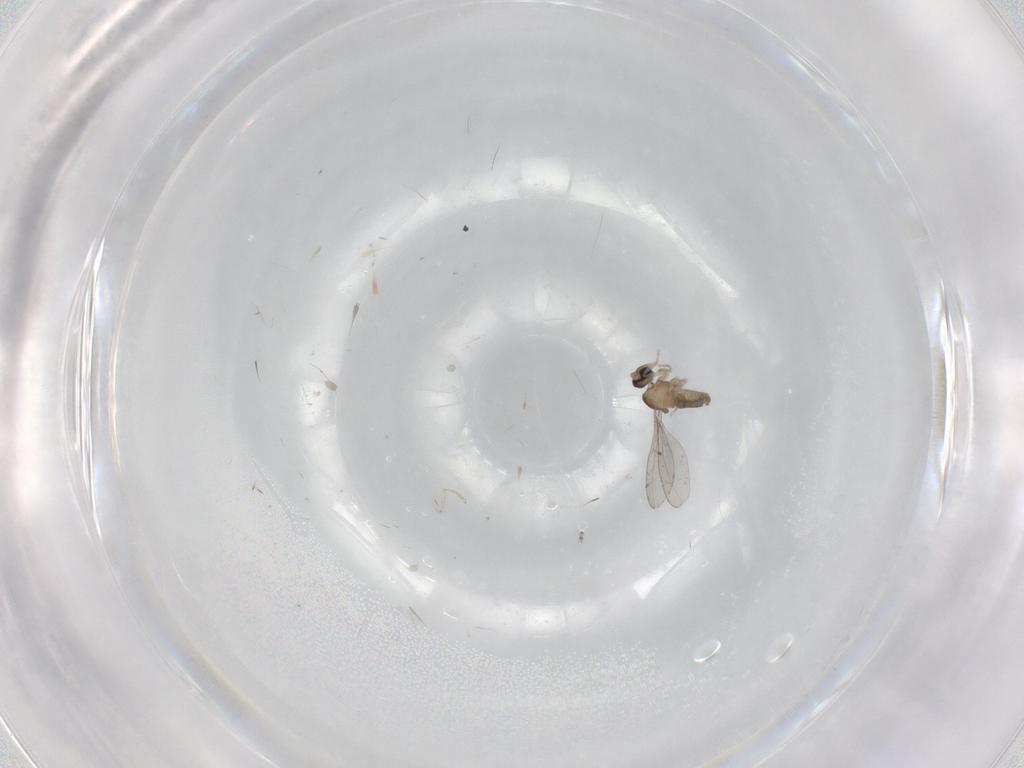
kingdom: Animalia
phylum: Arthropoda
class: Insecta
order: Diptera
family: Cecidomyiidae
